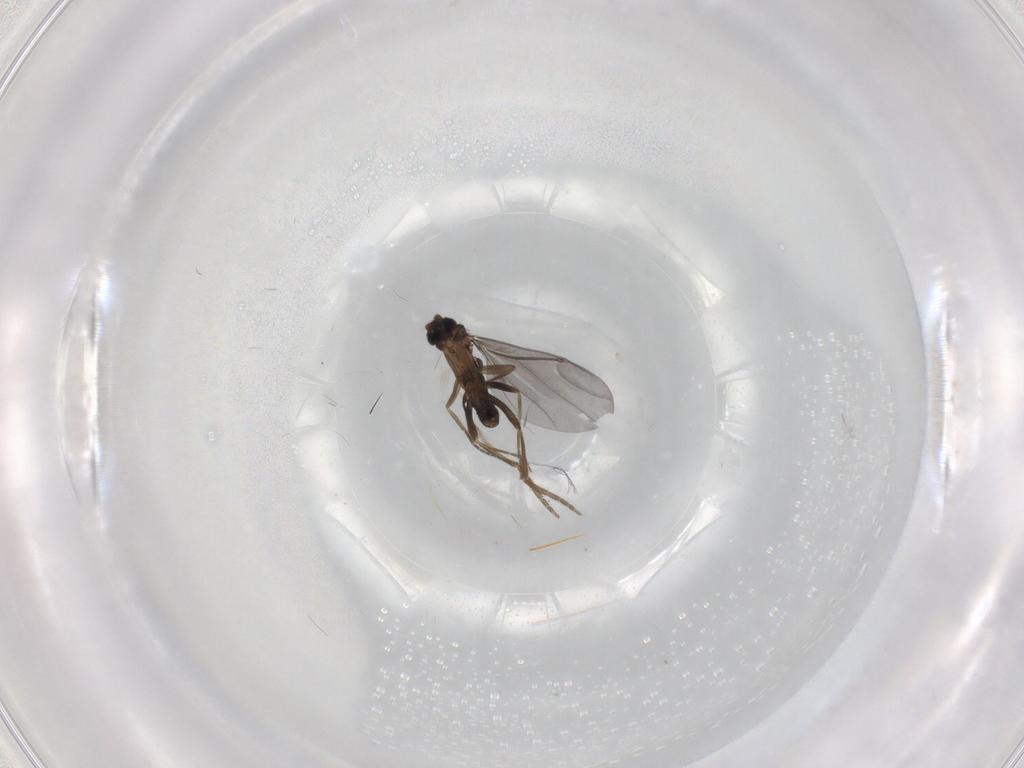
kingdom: Animalia
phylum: Arthropoda
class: Insecta
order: Diptera
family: Phoridae
